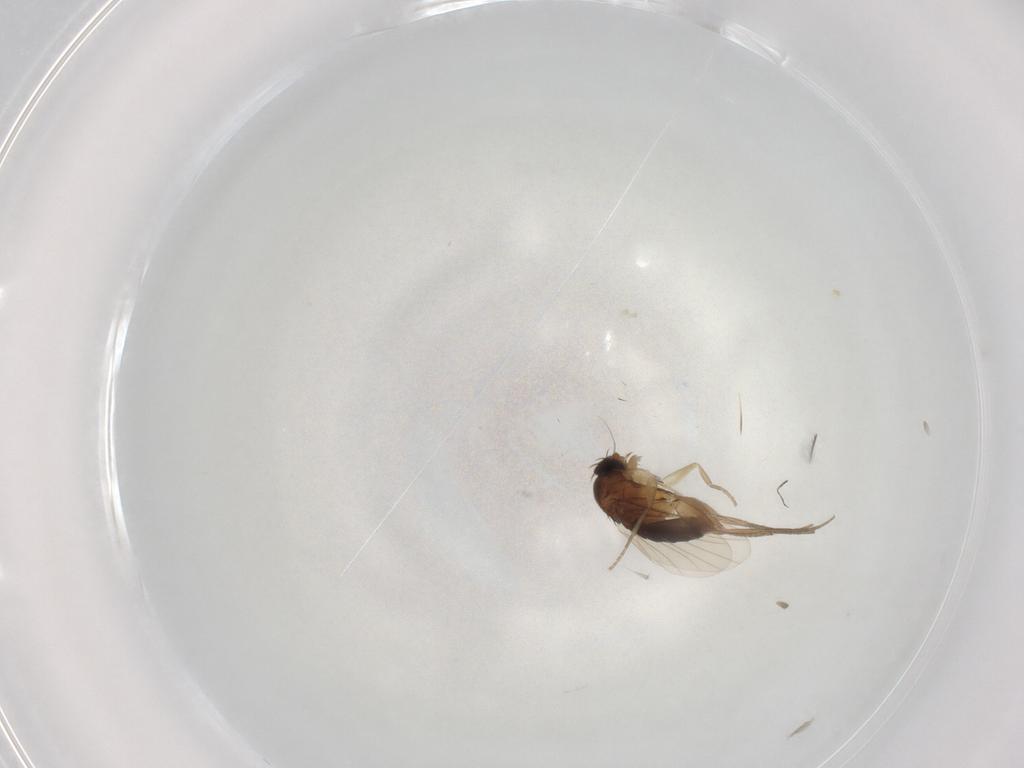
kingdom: Animalia
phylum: Arthropoda
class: Insecta
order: Diptera
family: Phoridae
